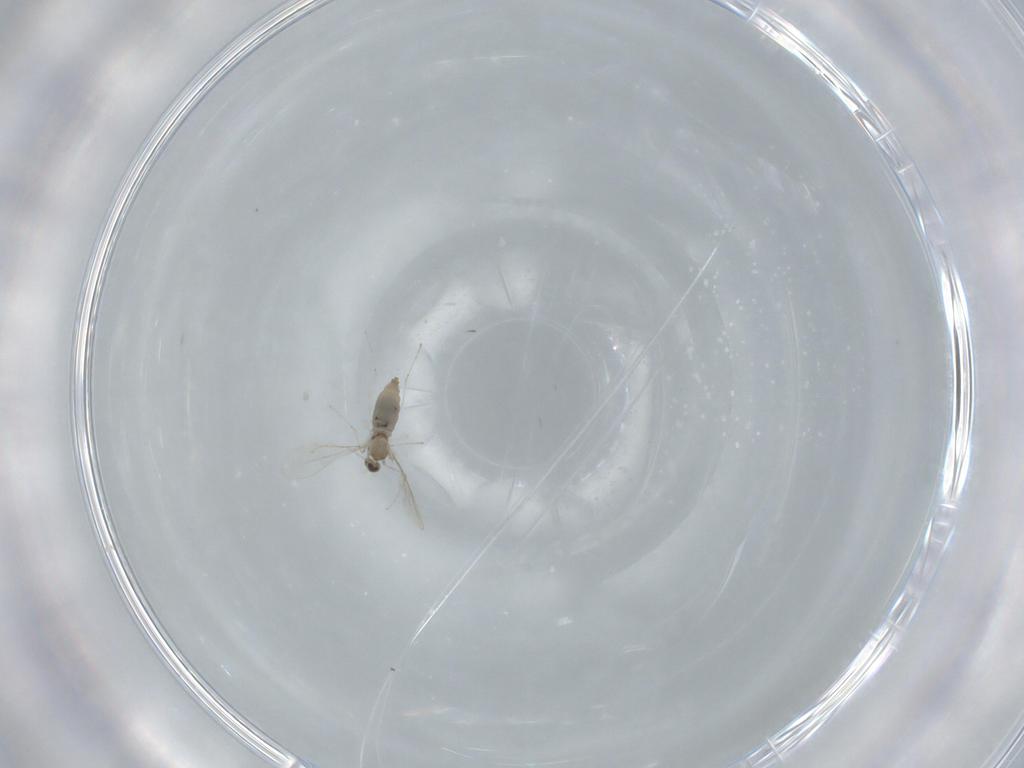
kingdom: Animalia
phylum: Arthropoda
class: Insecta
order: Diptera
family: Cecidomyiidae
